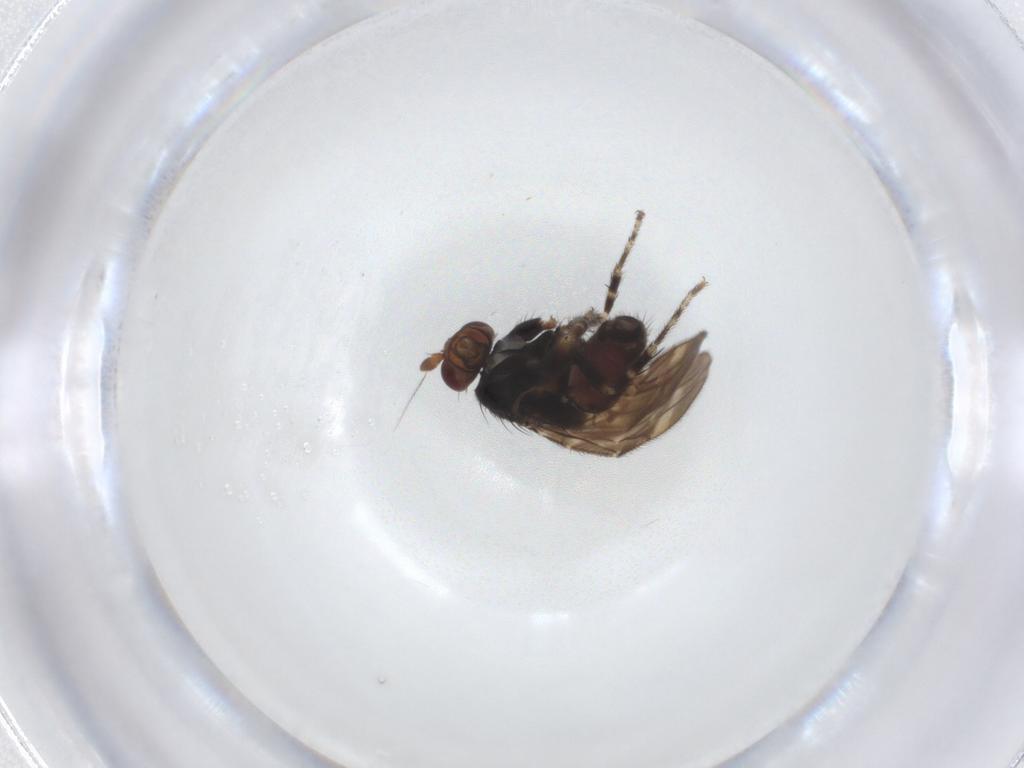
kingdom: Animalia
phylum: Arthropoda
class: Insecta
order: Diptera
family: Sphaeroceridae
